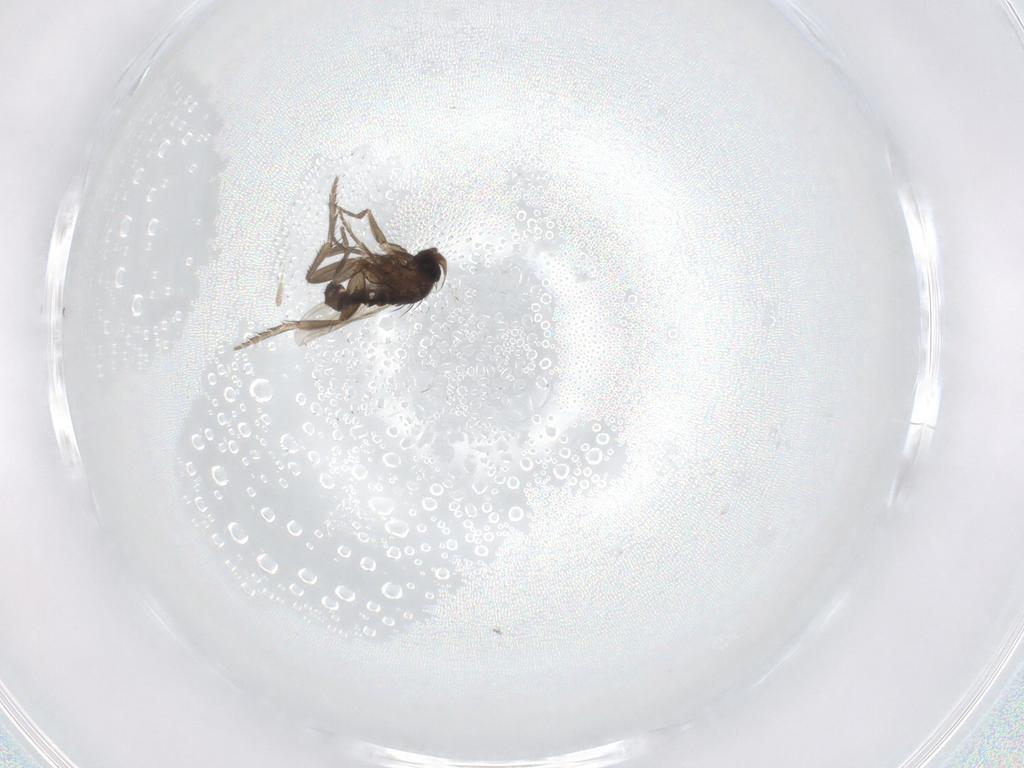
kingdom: Animalia
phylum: Arthropoda
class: Insecta
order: Diptera
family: Phoridae
